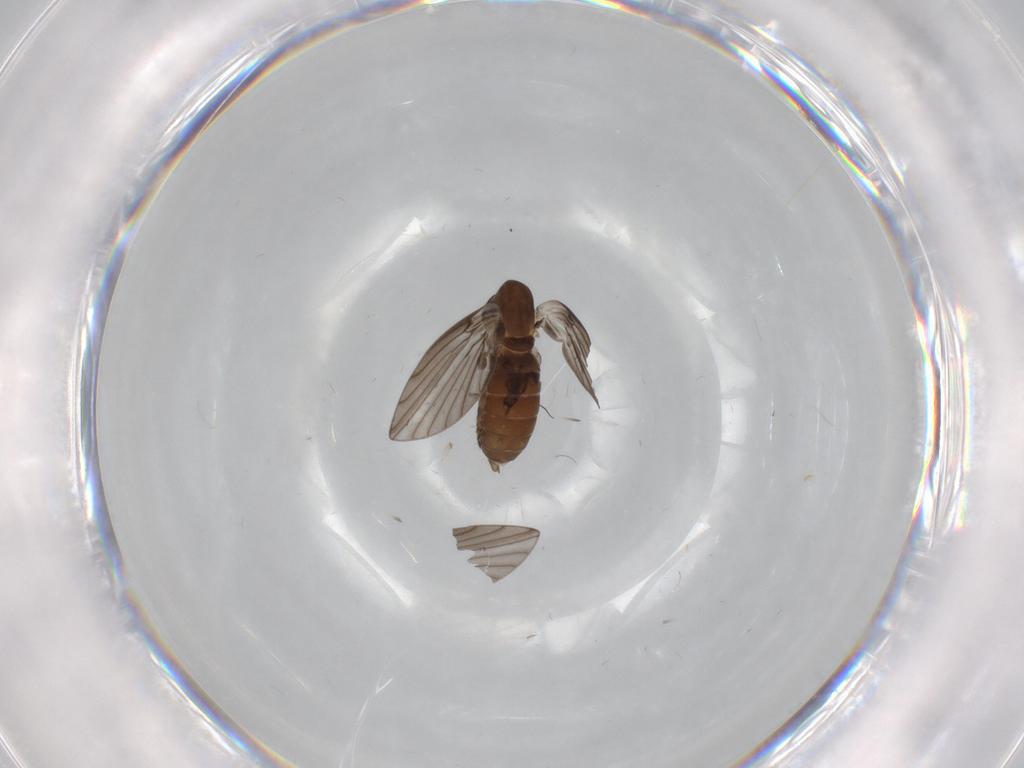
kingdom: Animalia
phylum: Arthropoda
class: Insecta
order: Diptera
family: Psychodidae
